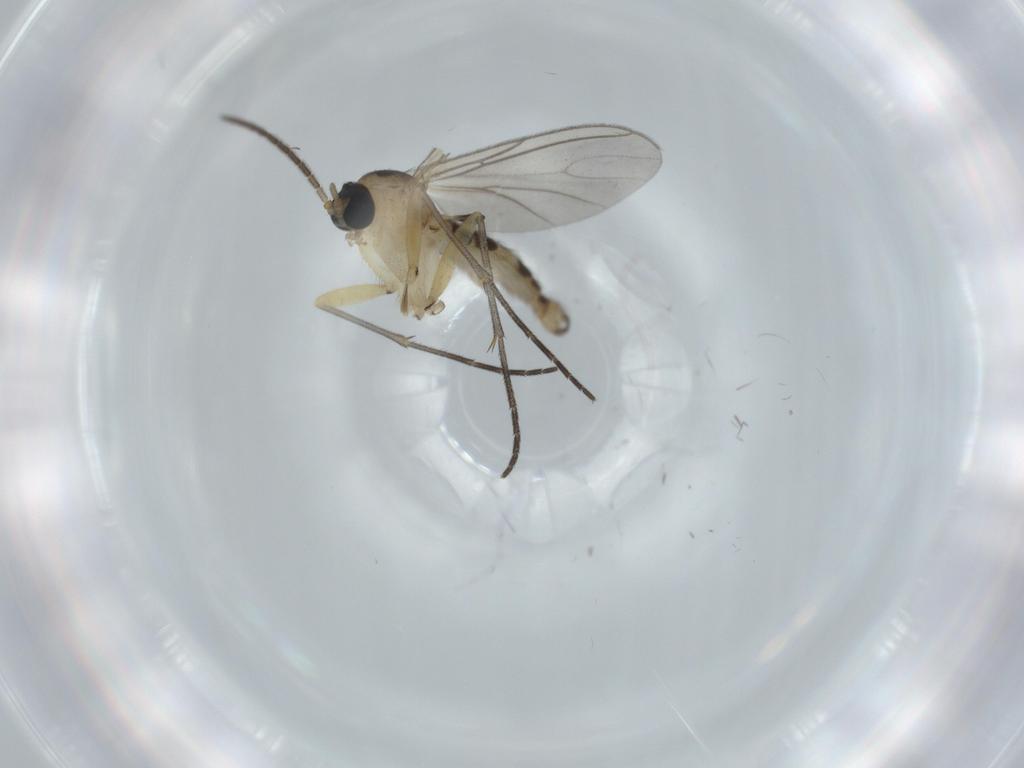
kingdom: Animalia
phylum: Arthropoda
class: Insecta
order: Diptera
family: Sciaridae
